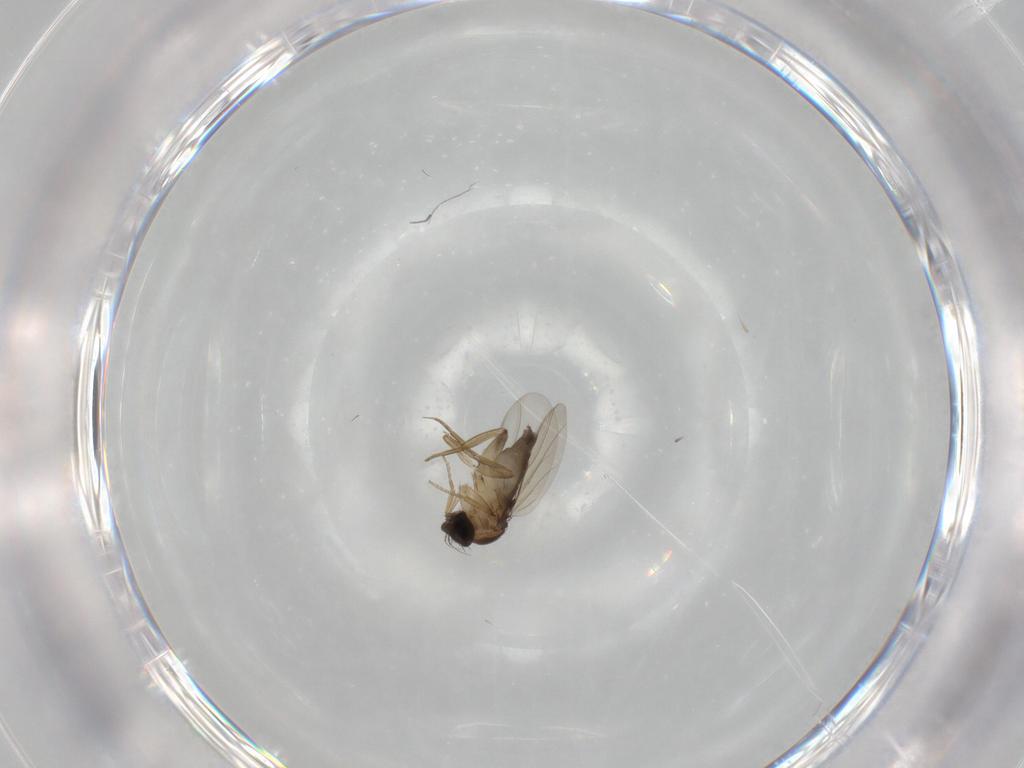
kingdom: Animalia
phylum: Arthropoda
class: Insecta
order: Diptera
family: Phoridae
